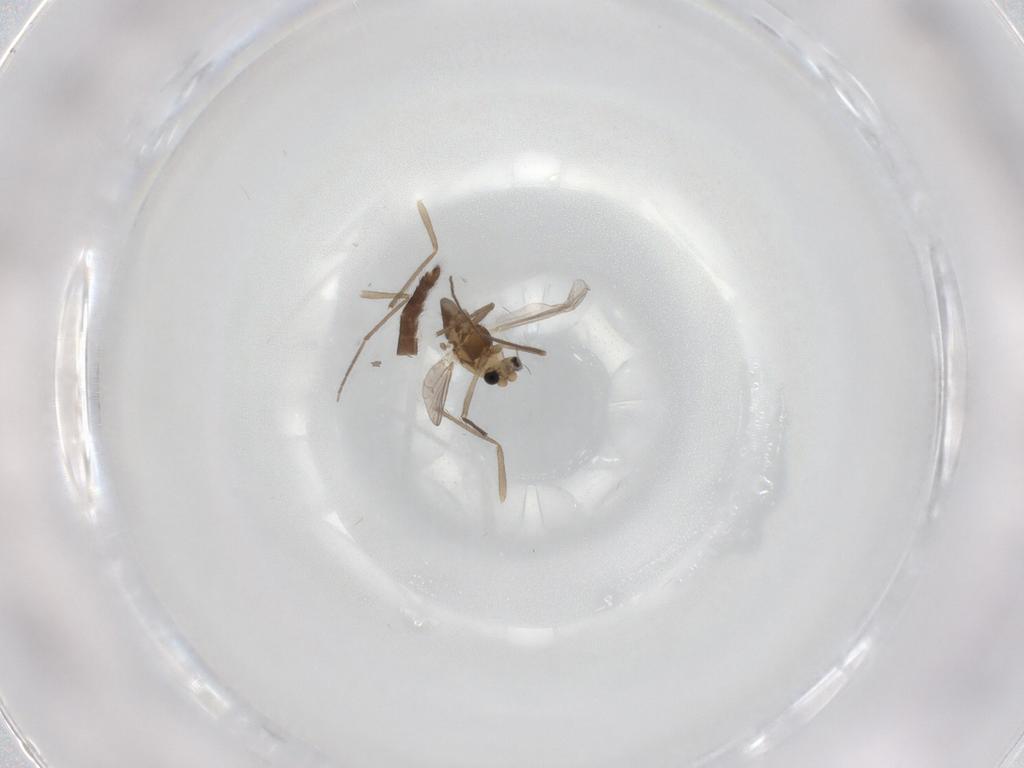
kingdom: Animalia
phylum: Arthropoda
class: Insecta
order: Diptera
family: Chironomidae
